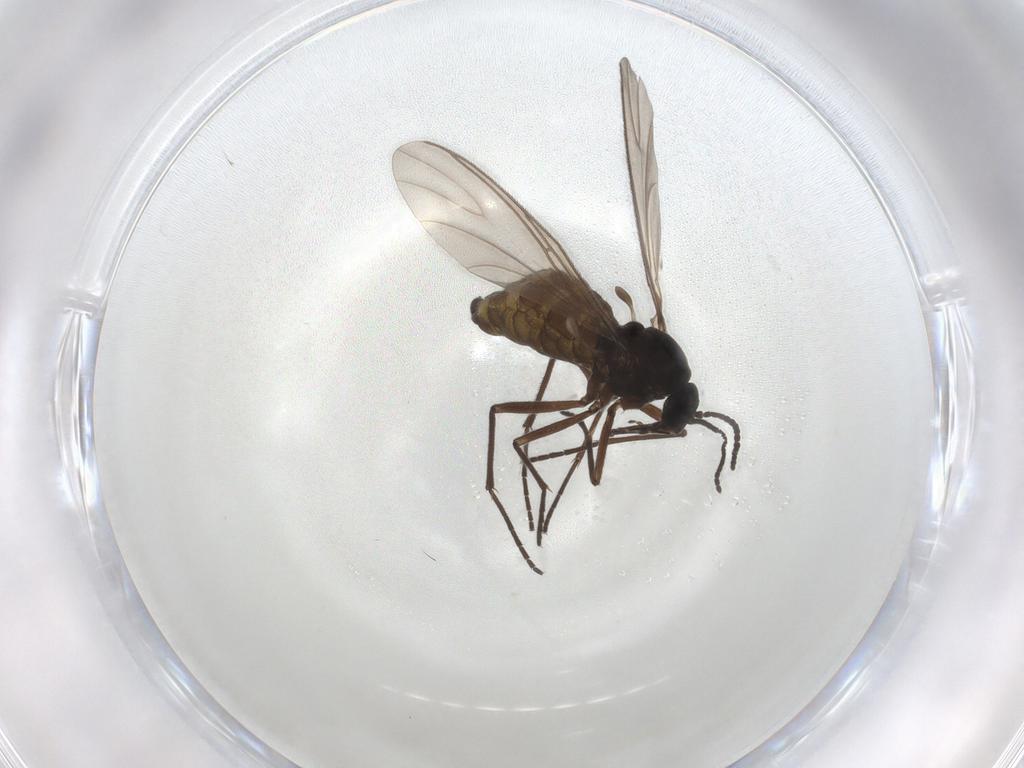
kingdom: Animalia
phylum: Arthropoda
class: Insecta
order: Diptera
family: Sciaridae
